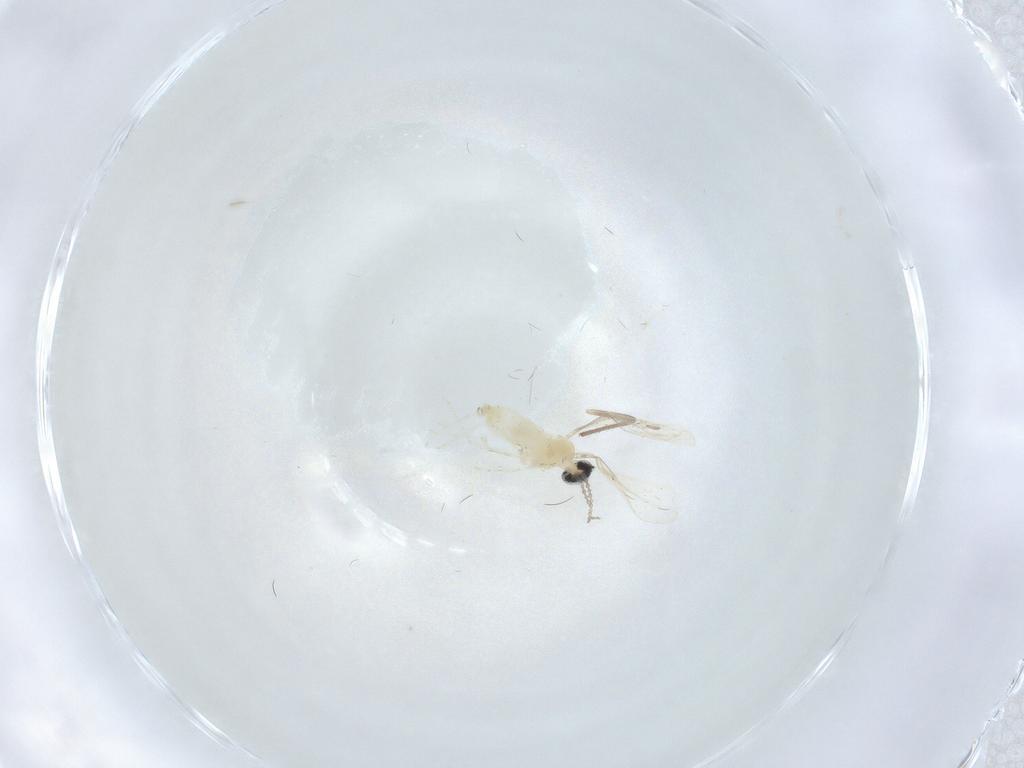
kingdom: Animalia
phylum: Arthropoda
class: Insecta
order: Diptera
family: Cecidomyiidae
